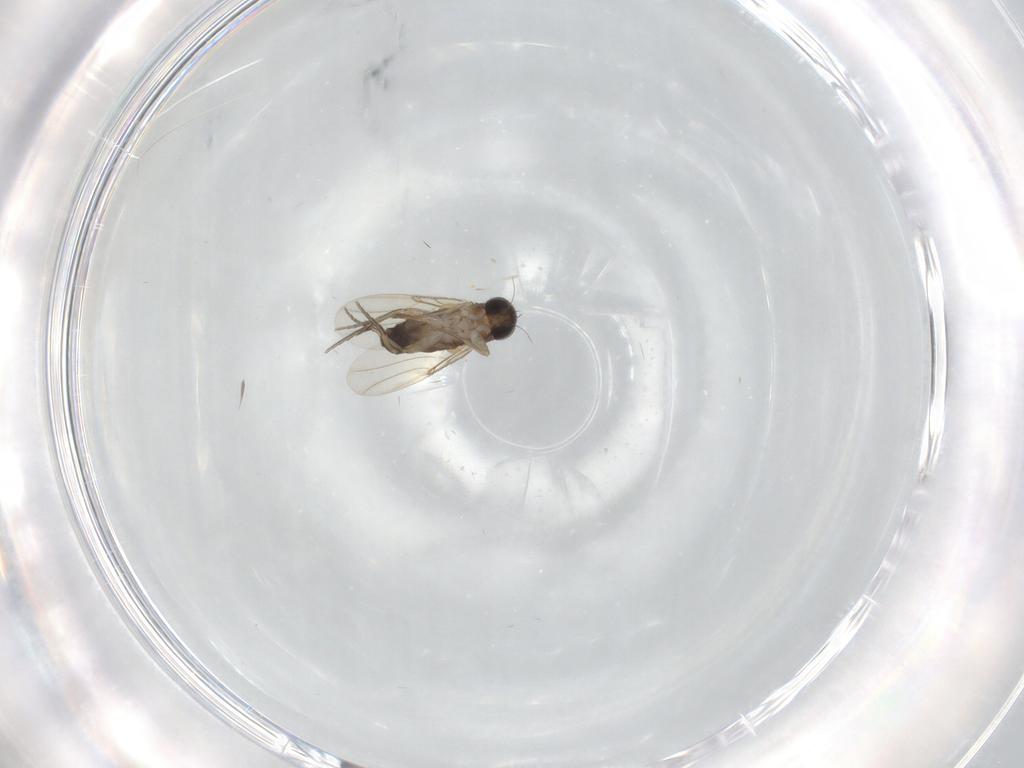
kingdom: Animalia
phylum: Arthropoda
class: Insecta
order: Diptera
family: Phoridae
